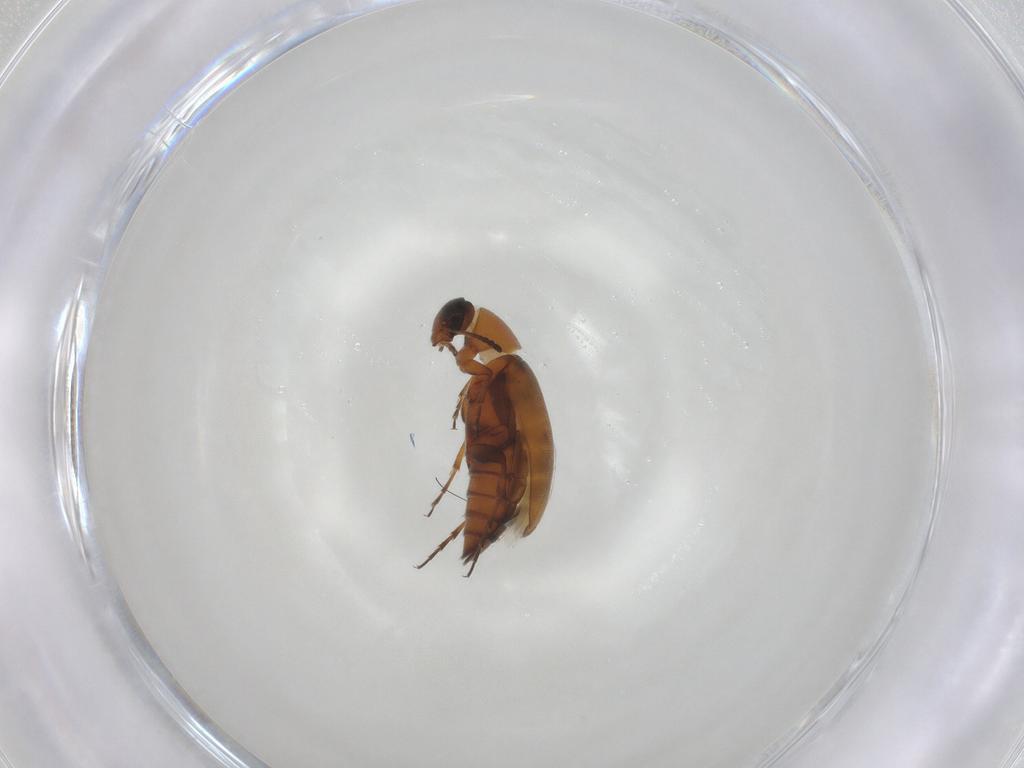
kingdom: Animalia
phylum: Arthropoda
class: Insecta
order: Coleoptera
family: Scraptiidae
